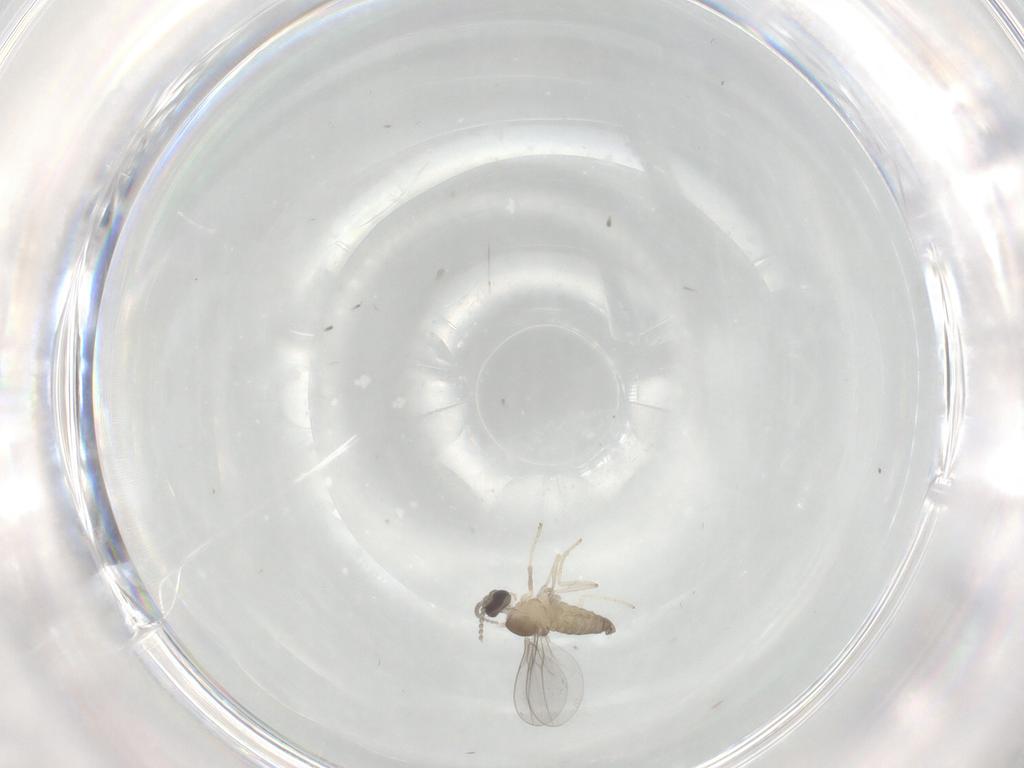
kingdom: Animalia
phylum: Arthropoda
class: Insecta
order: Diptera
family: Cecidomyiidae
